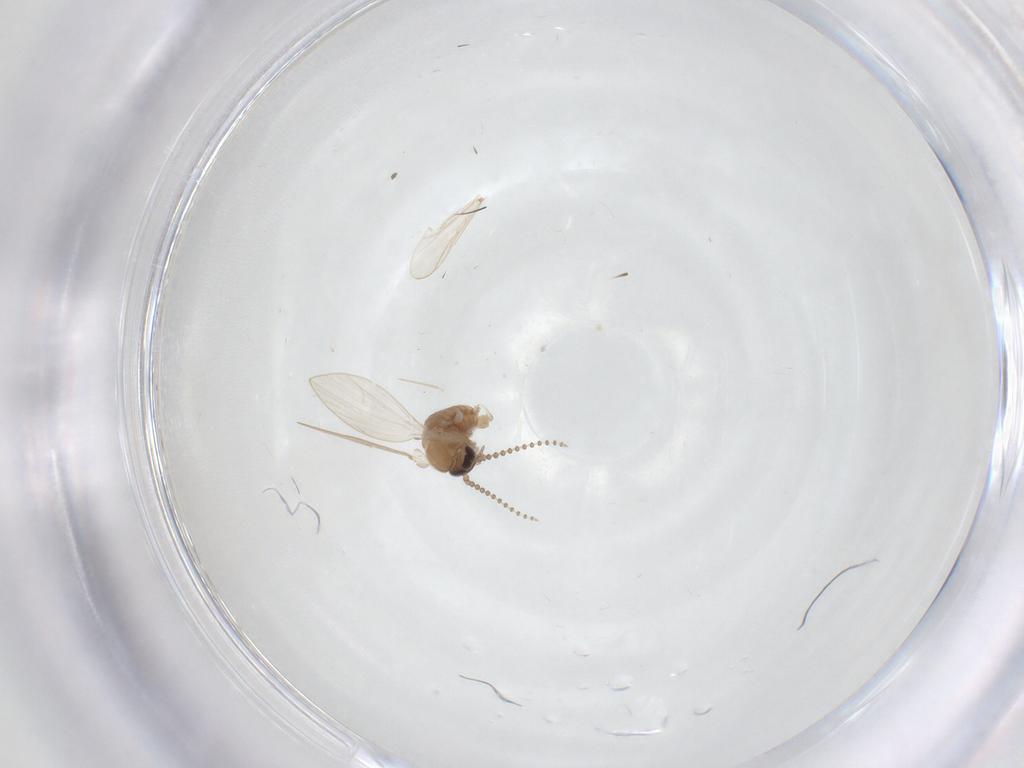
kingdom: Animalia
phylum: Arthropoda
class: Insecta
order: Diptera
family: Psychodidae
